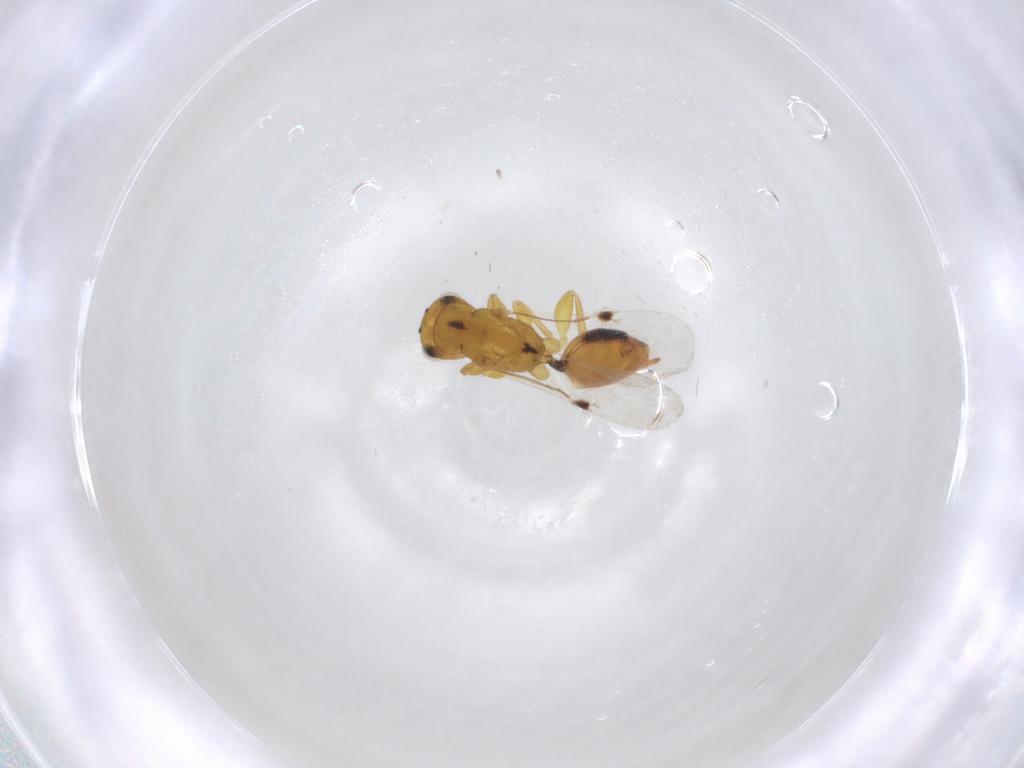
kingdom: Animalia
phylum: Arthropoda
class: Insecta
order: Hymenoptera
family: Eurytomidae
